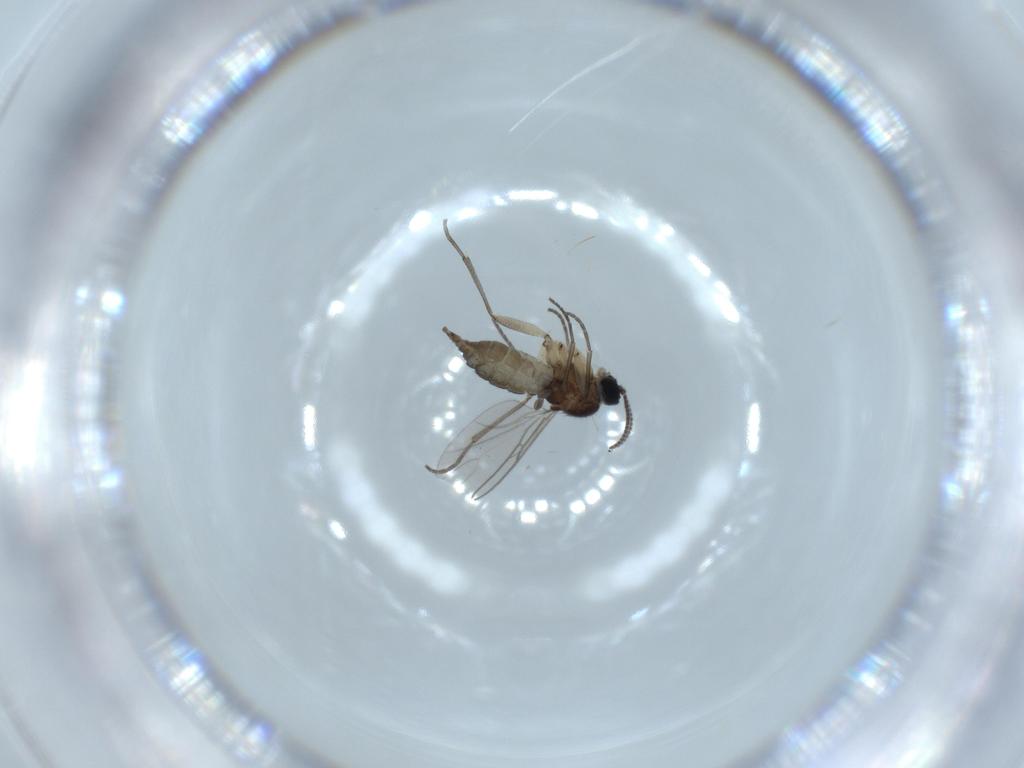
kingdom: Animalia
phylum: Arthropoda
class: Insecta
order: Diptera
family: Sciaridae
